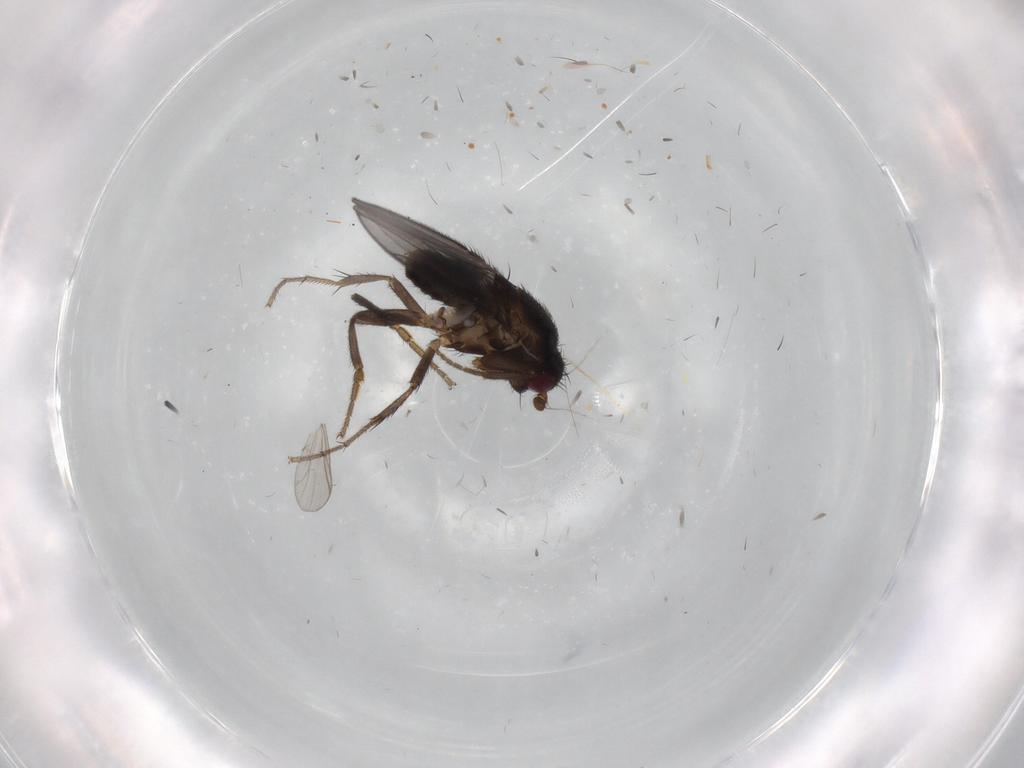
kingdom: Animalia
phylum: Arthropoda
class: Insecta
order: Diptera
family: Sphaeroceridae
